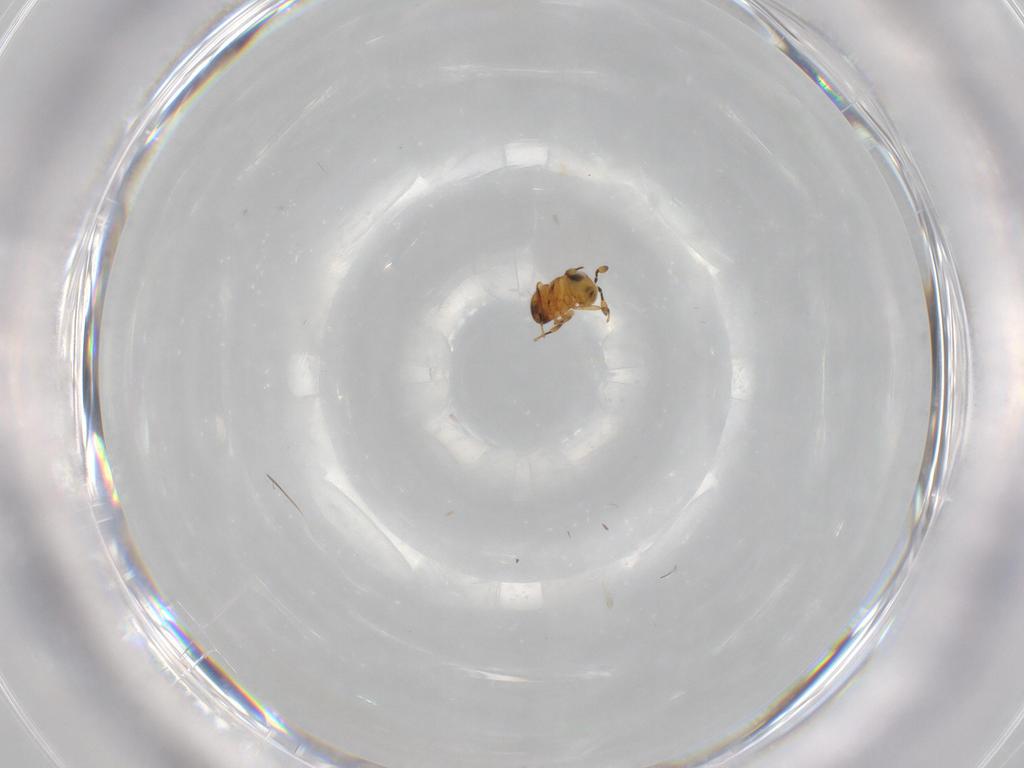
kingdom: Animalia
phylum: Arthropoda
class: Insecta
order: Hymenoptera
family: Scelionidae
